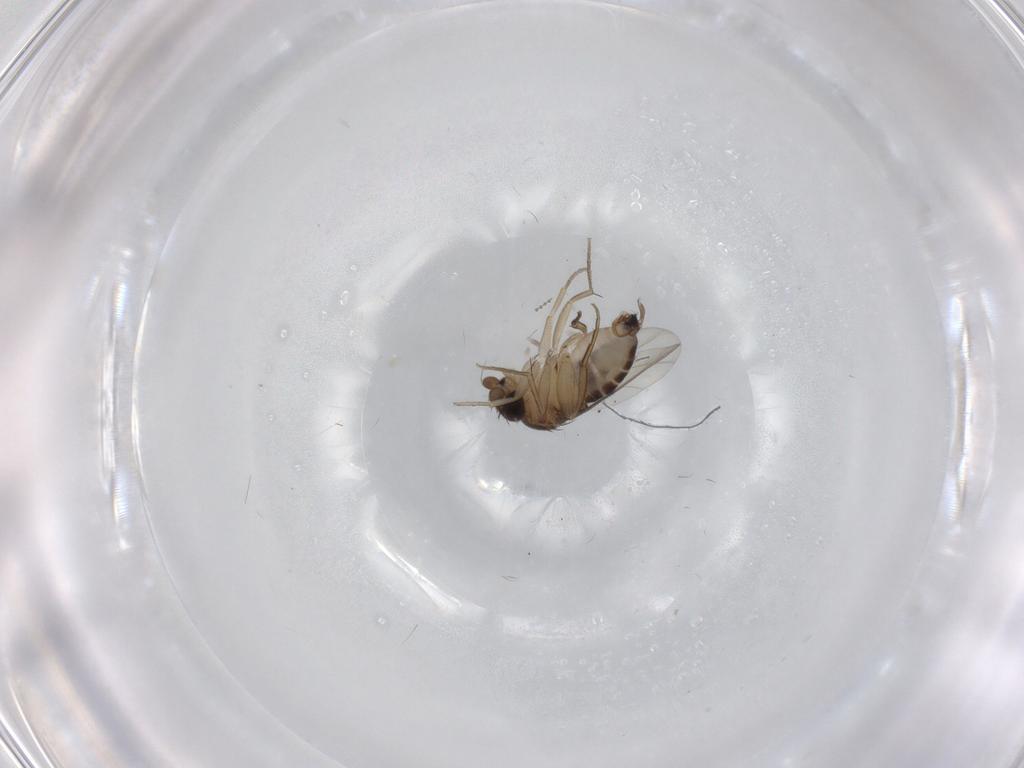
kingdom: Animalia
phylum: Arthropoda
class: Insecta
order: Diptera
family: Cecidomyiidae
